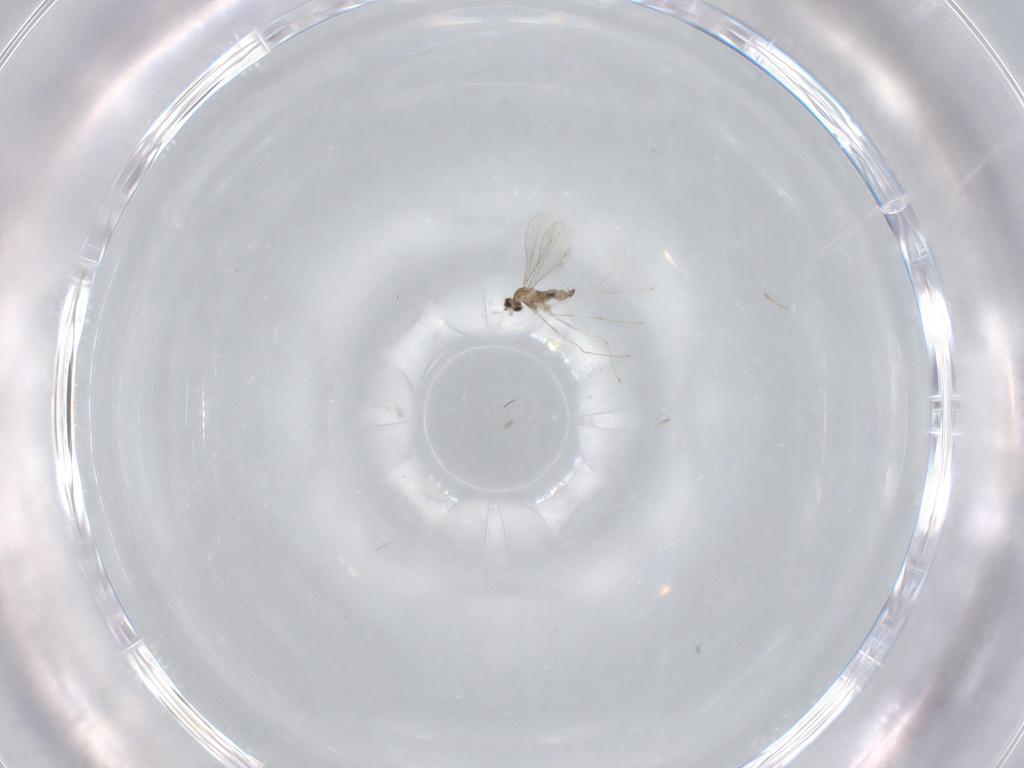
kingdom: Animalia
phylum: Arthropoda
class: Insecta
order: Diptera
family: Cecidomyiidae
